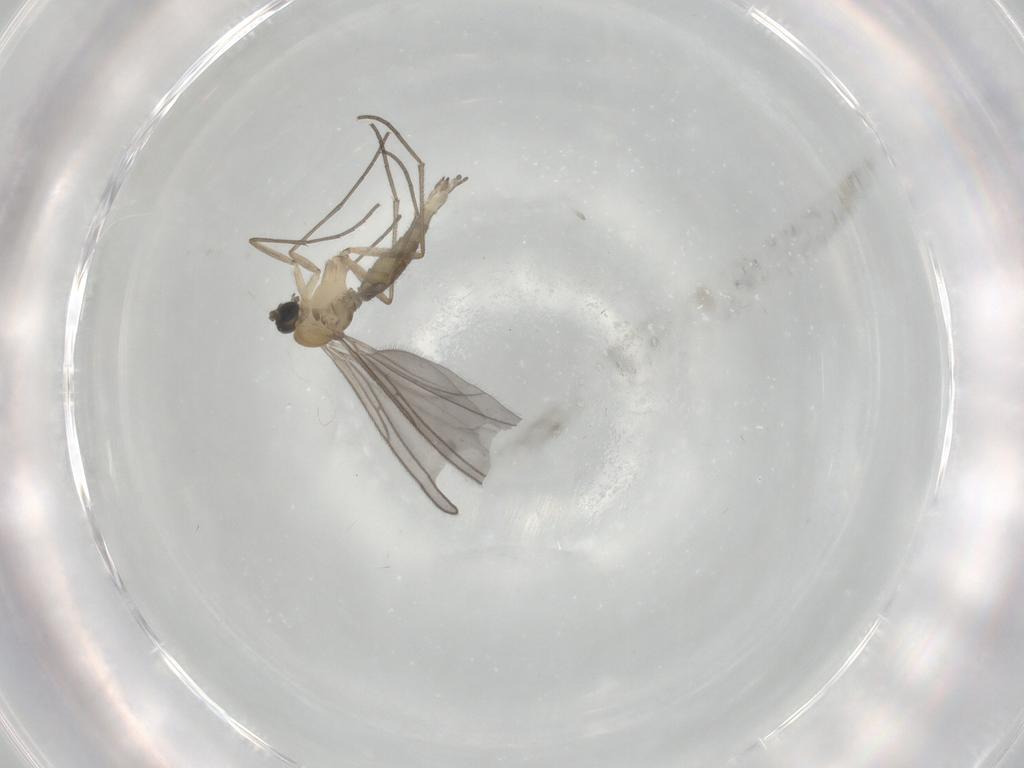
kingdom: Animalia
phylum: Arthropoda
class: Insecta
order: Diptera
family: Sciaridae
